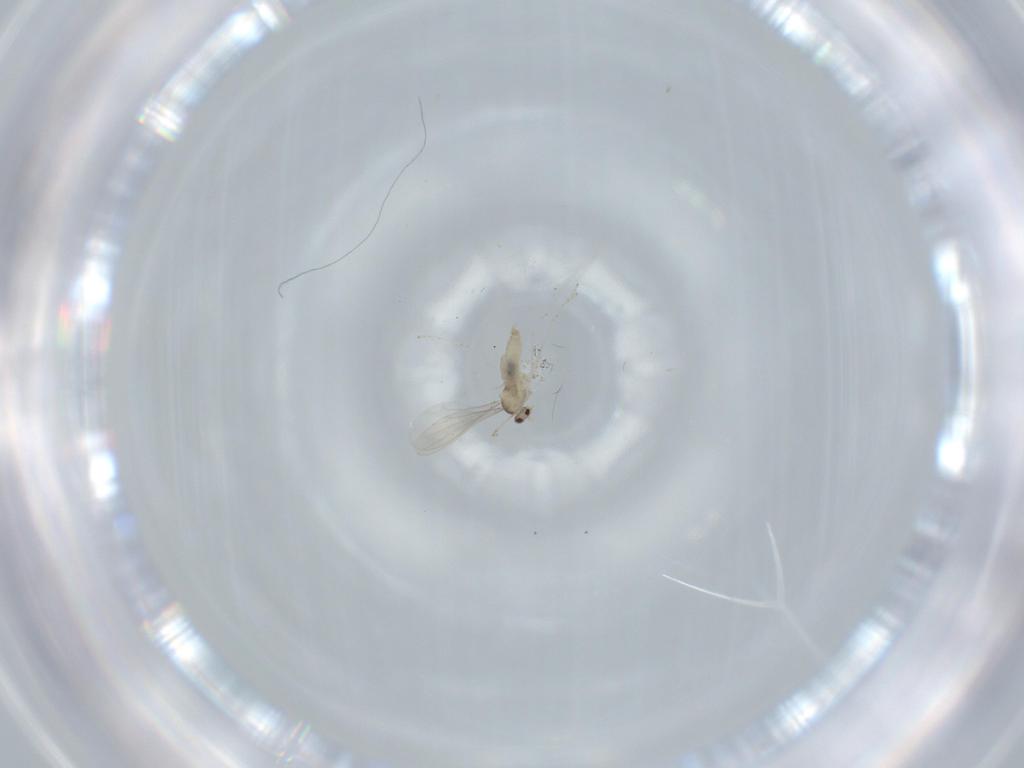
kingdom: Animalia
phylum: Arthropoda
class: Insecta
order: Diptera
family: Cecidomyiidae
